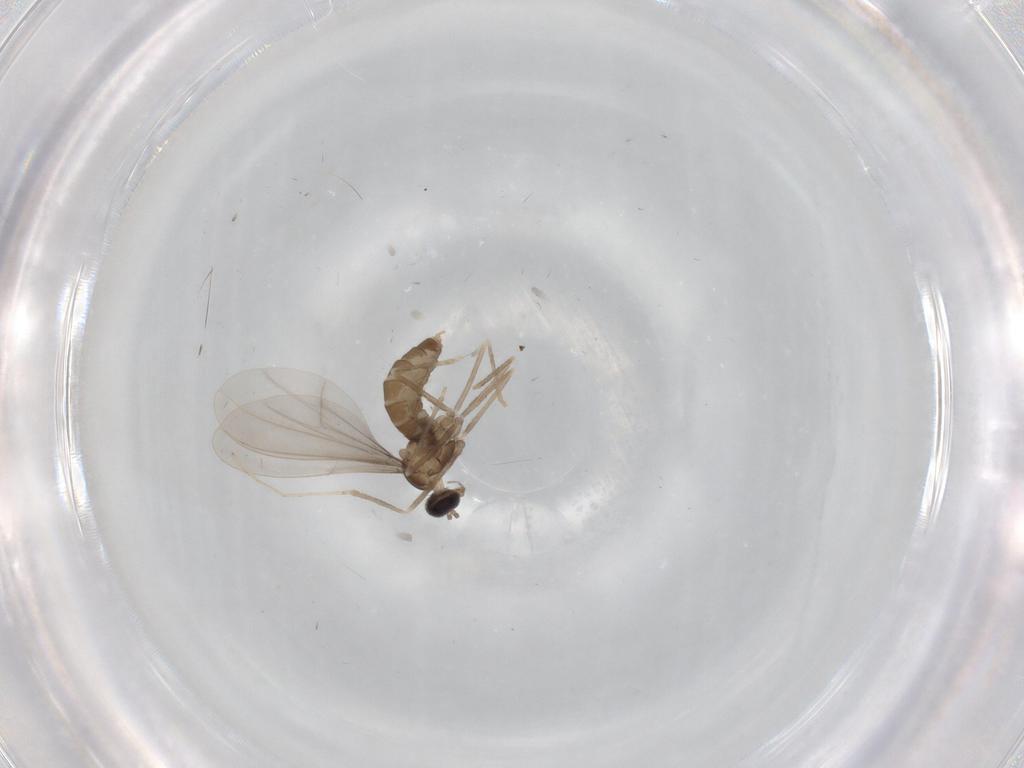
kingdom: Animalia
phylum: Arthropoda
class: Insecta
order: Diptera
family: Cecidomyiidae
